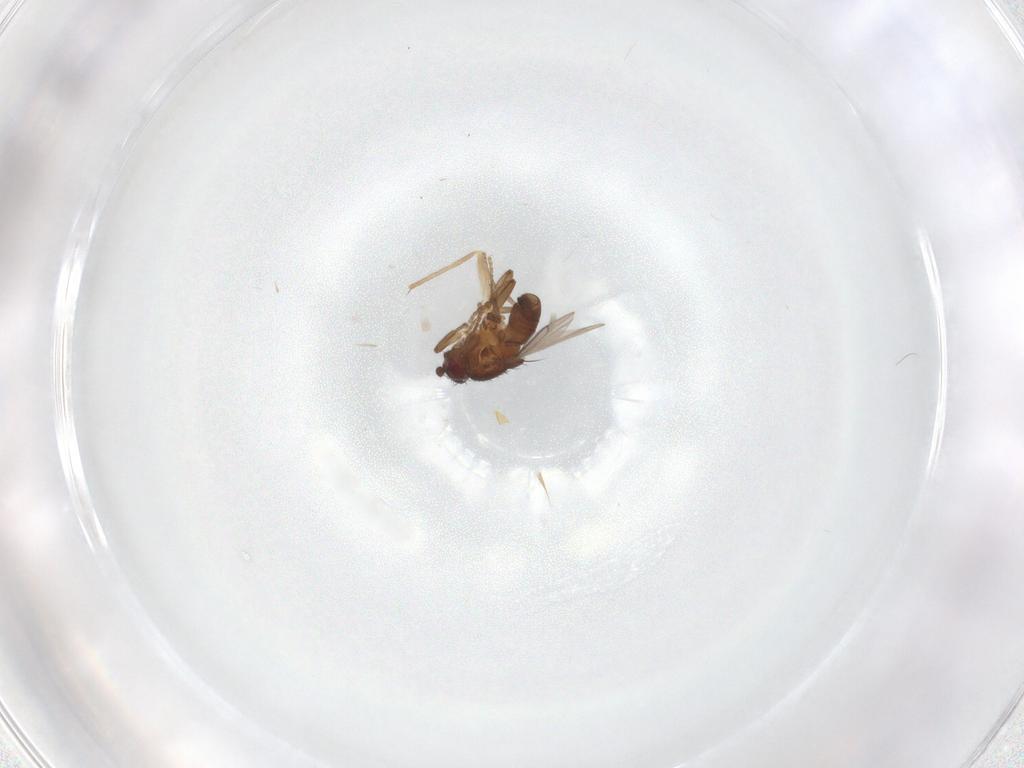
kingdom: Animalia
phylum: Arthropoda
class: Insecta
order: Diptera
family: Sphaeroceridae
